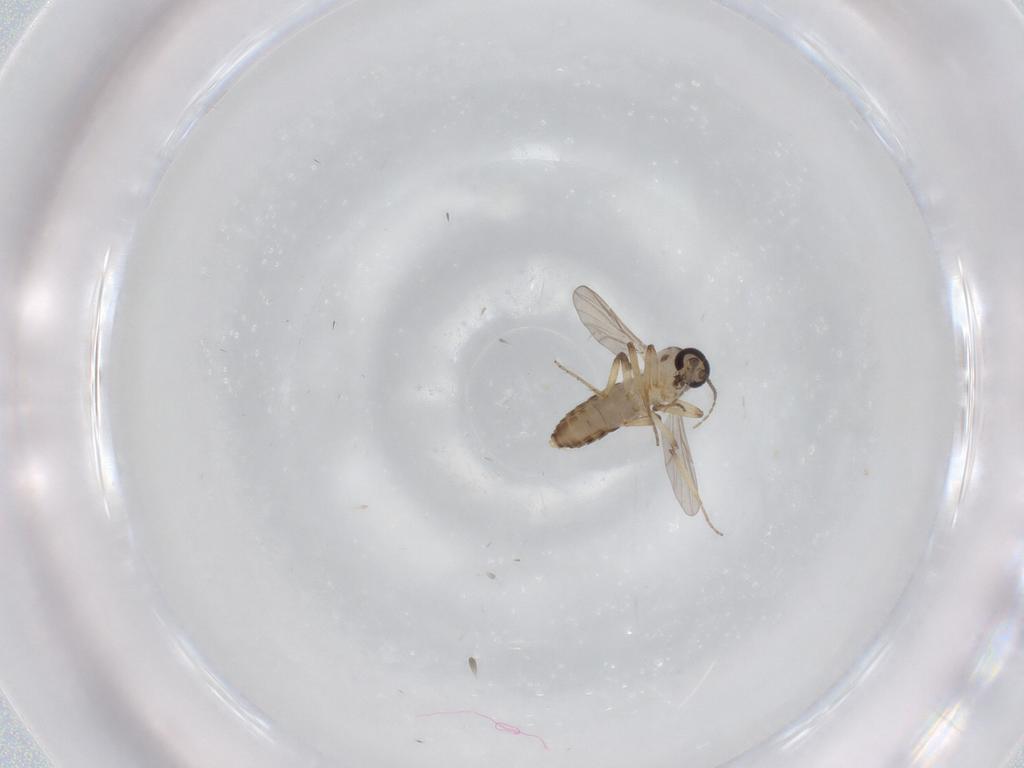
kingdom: Animalia
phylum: Arthropoda
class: Insecta
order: Diptera
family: Ceratopogonidae
